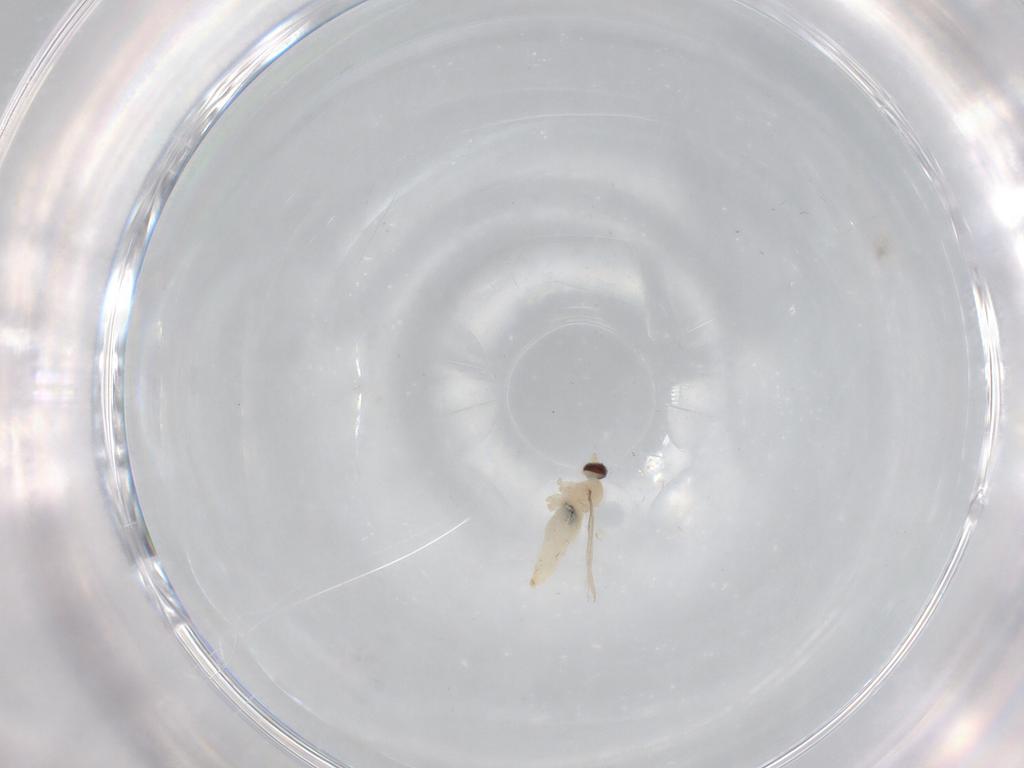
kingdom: Animalia
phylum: Arthropoda
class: Insecta
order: Diptera
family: Cecidomyiidae
